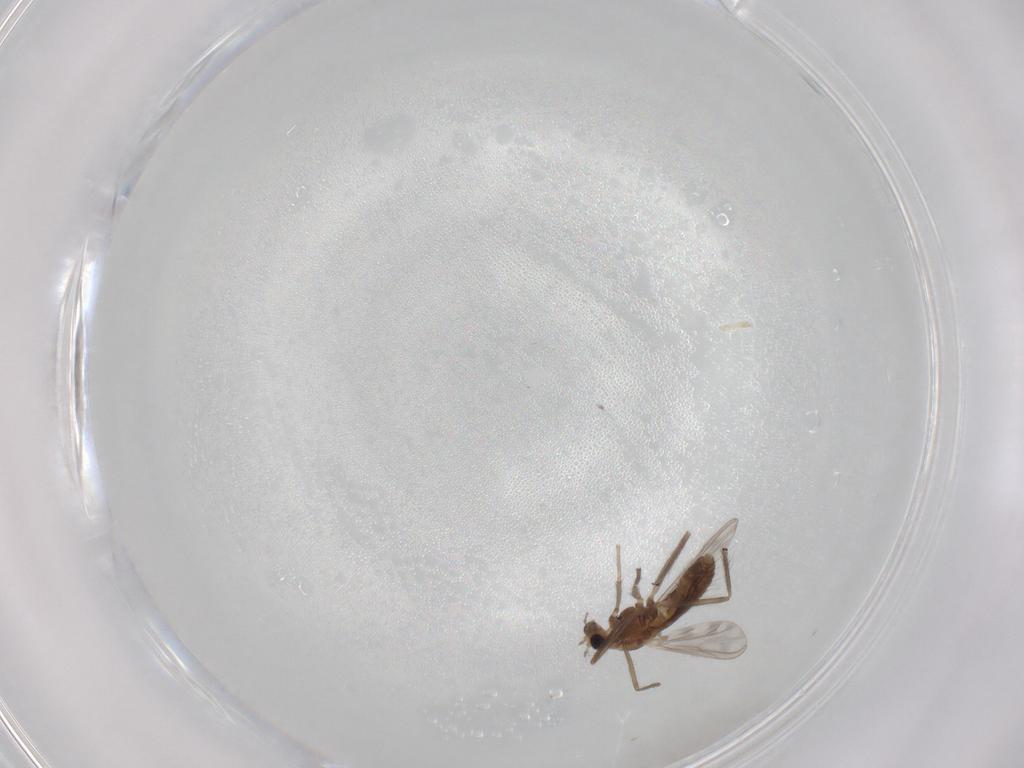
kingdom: Animalia
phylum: Arthropoda
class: Insecta
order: Diptera
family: Chironomidae
